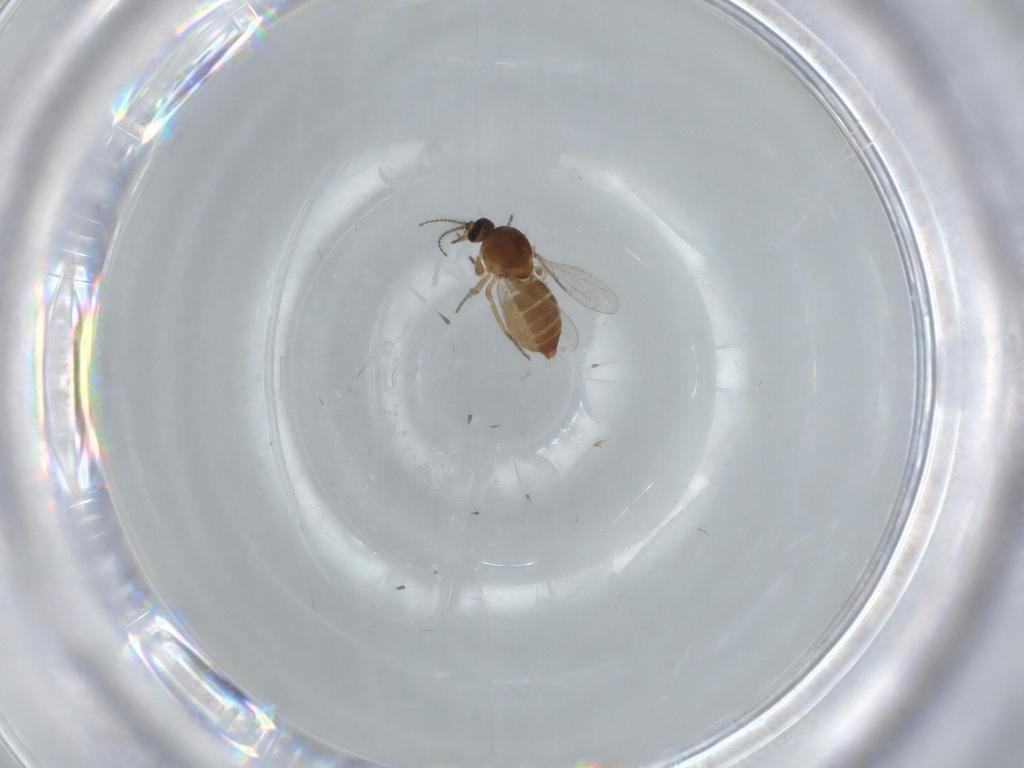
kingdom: Animalia
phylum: Arthropoda
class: Insecta
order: Diptera
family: Ceratopogonidae
